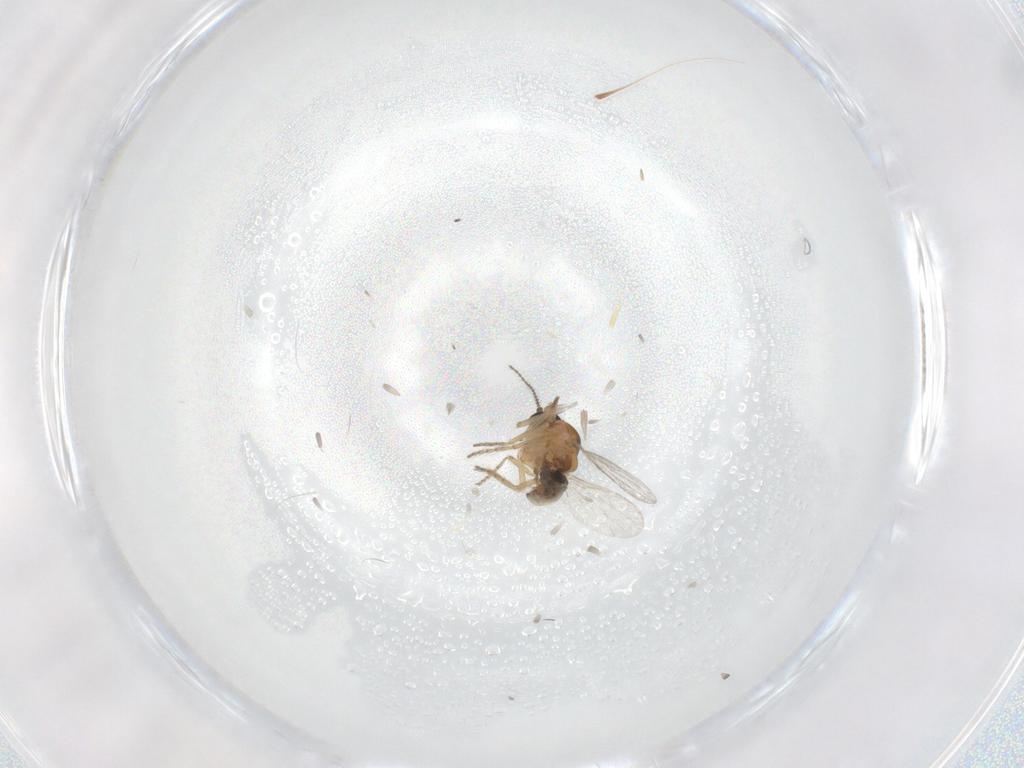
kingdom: Animalia
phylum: Arthropoda
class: Insecta
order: Diptera
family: Ceratopogonidae
